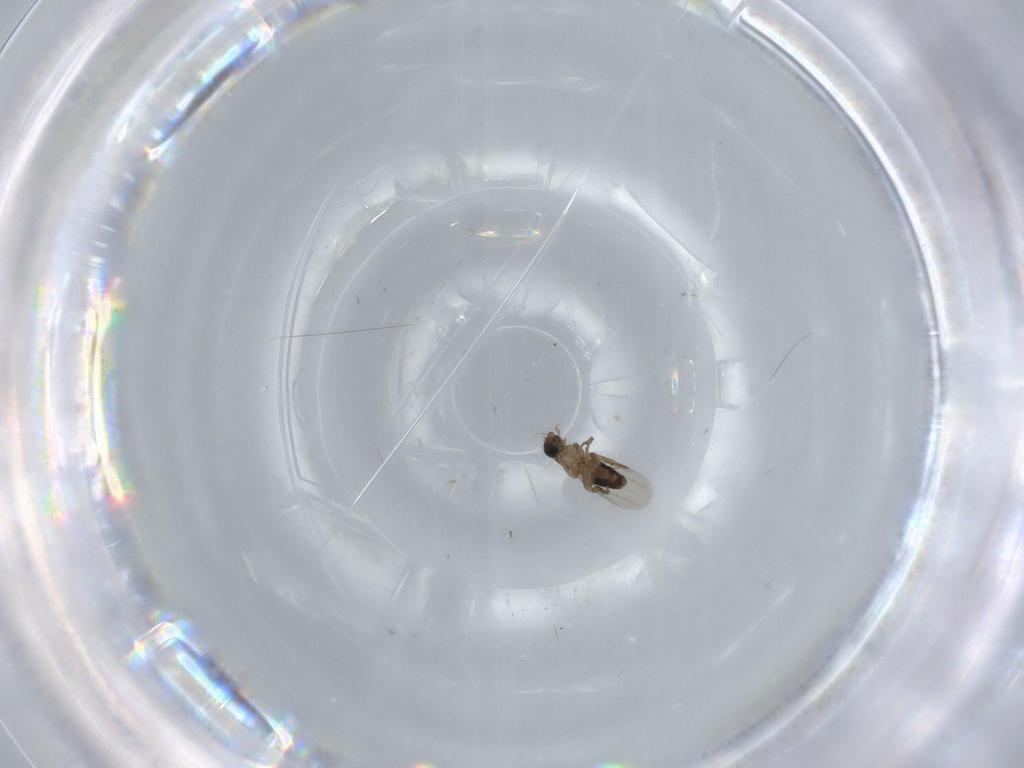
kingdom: Animalia
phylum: Arthropoda
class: Insecta
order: Diptera
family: Phoridae
